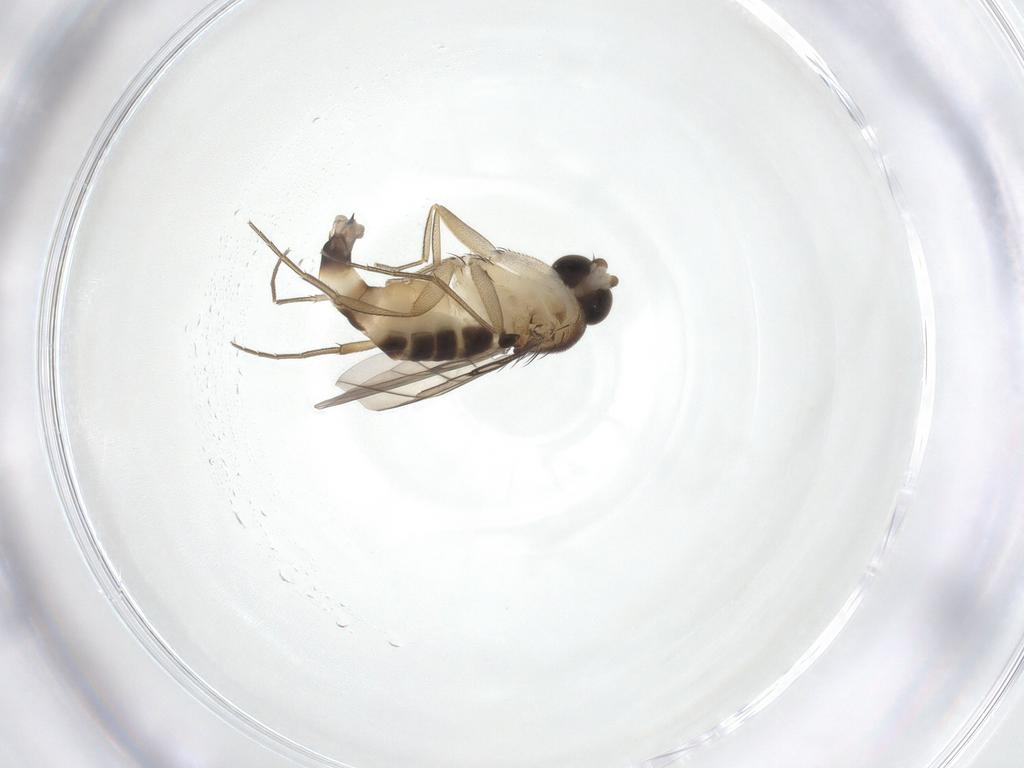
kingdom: Animalia
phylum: Arthropoda
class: Insecta
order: Diptera
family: Phoridae
